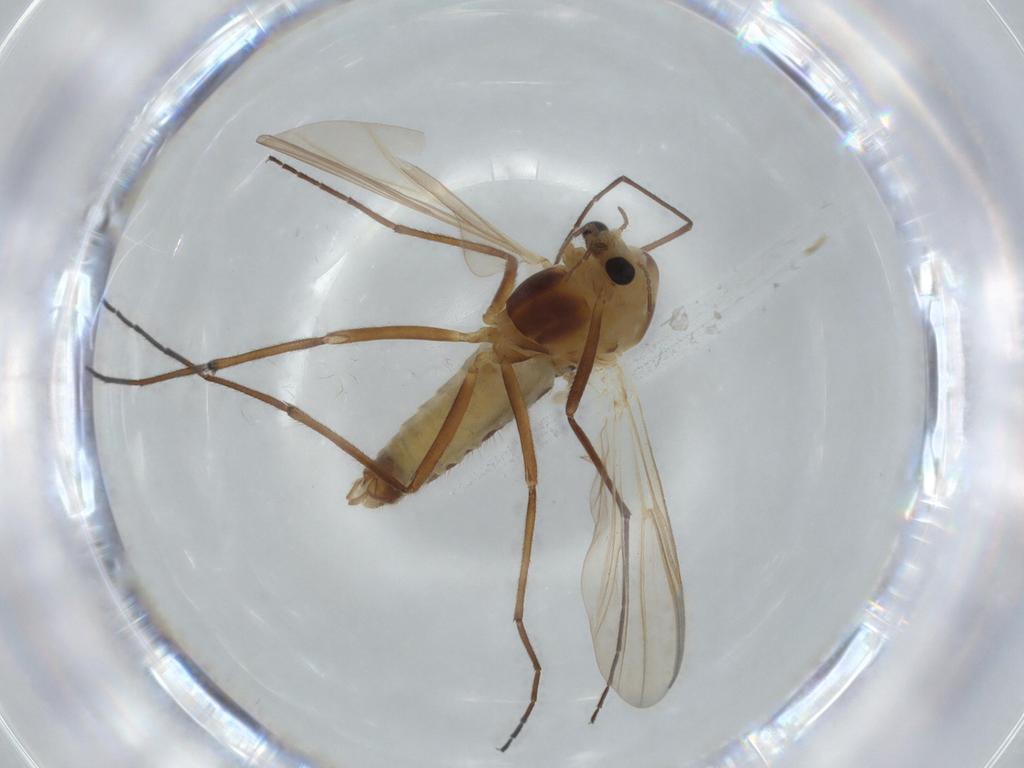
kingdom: Animalia
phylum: Arthropoda
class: Insecta
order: Diptera
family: Sciaridae
